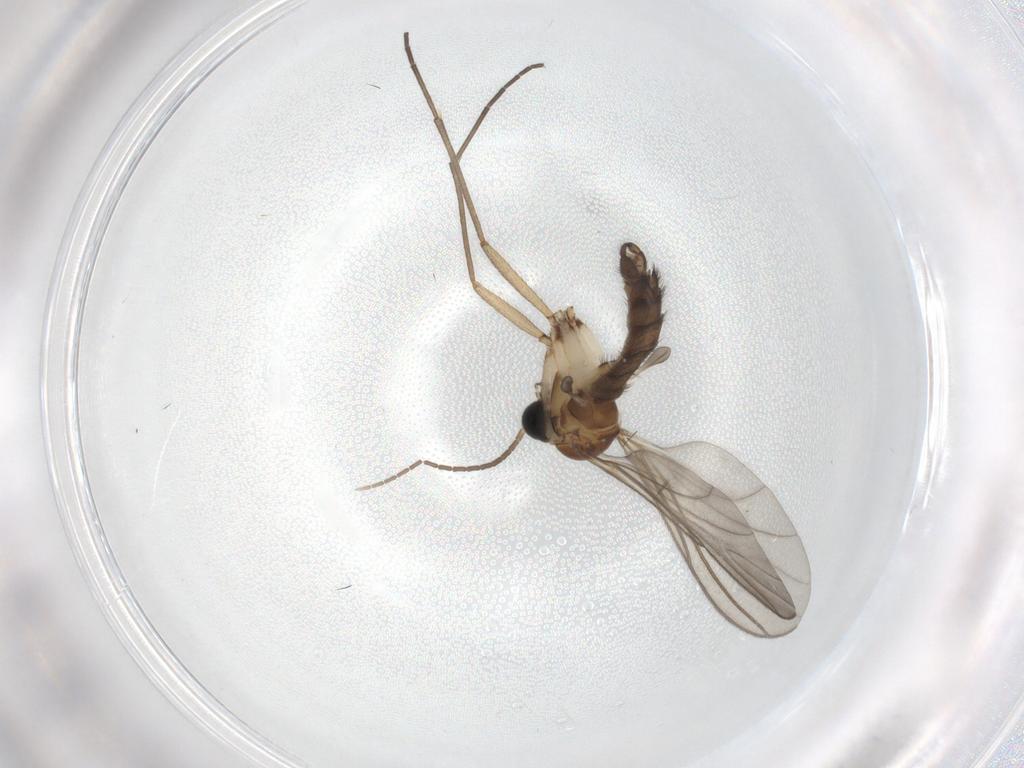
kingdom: Animalia
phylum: Arthropoda
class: Insecta
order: Diptera
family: Sciaridae
